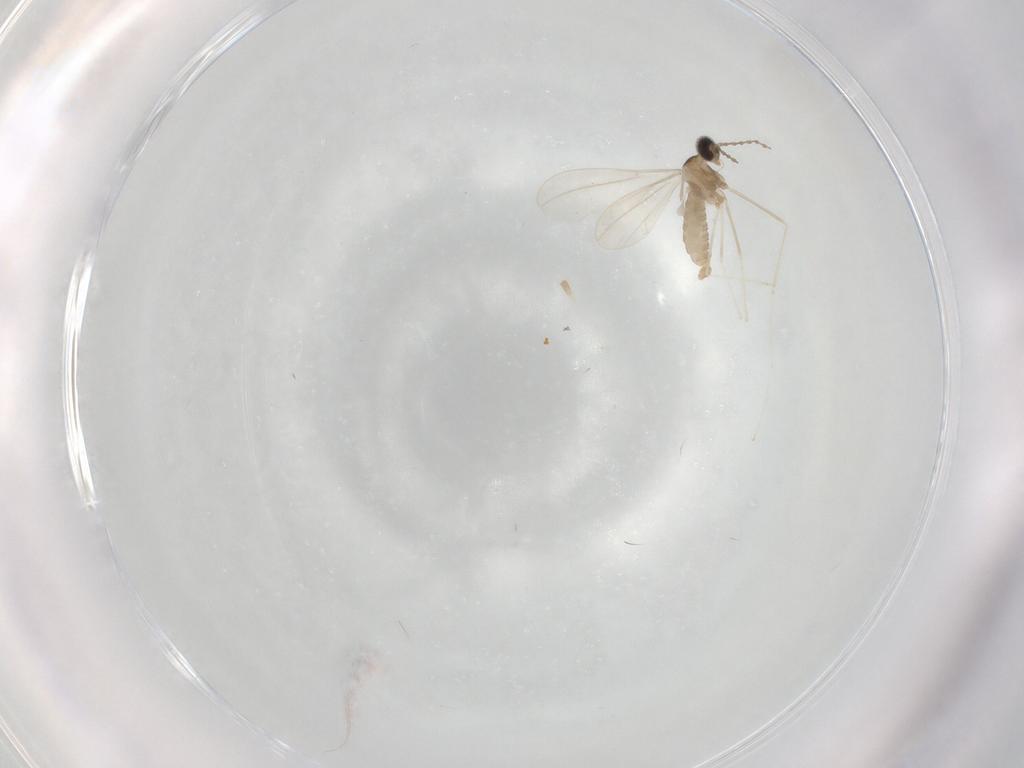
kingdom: Animalia
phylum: Arthropoda
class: Insecta
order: Diptera
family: Cecidomyiidae
